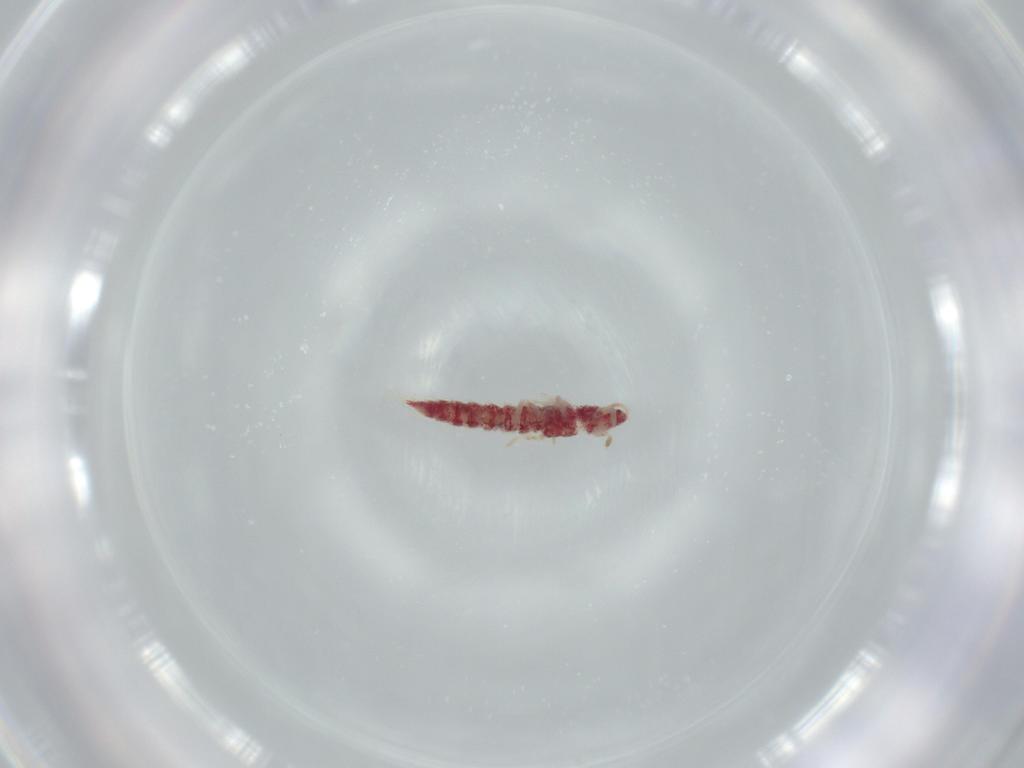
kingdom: Animalia
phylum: Arthropoda
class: Insecta
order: Thysanoptera
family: Phlaeothripidae
